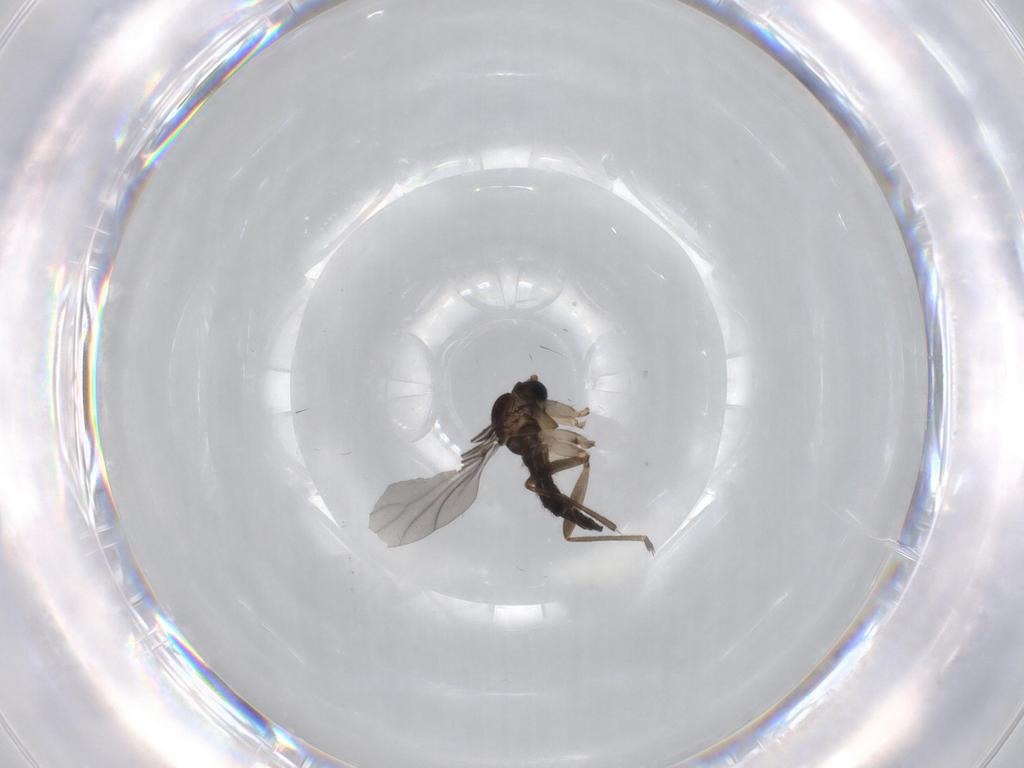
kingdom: Animalia
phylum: Arthropoda
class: Insecta
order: Diptera
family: Sciaridae
